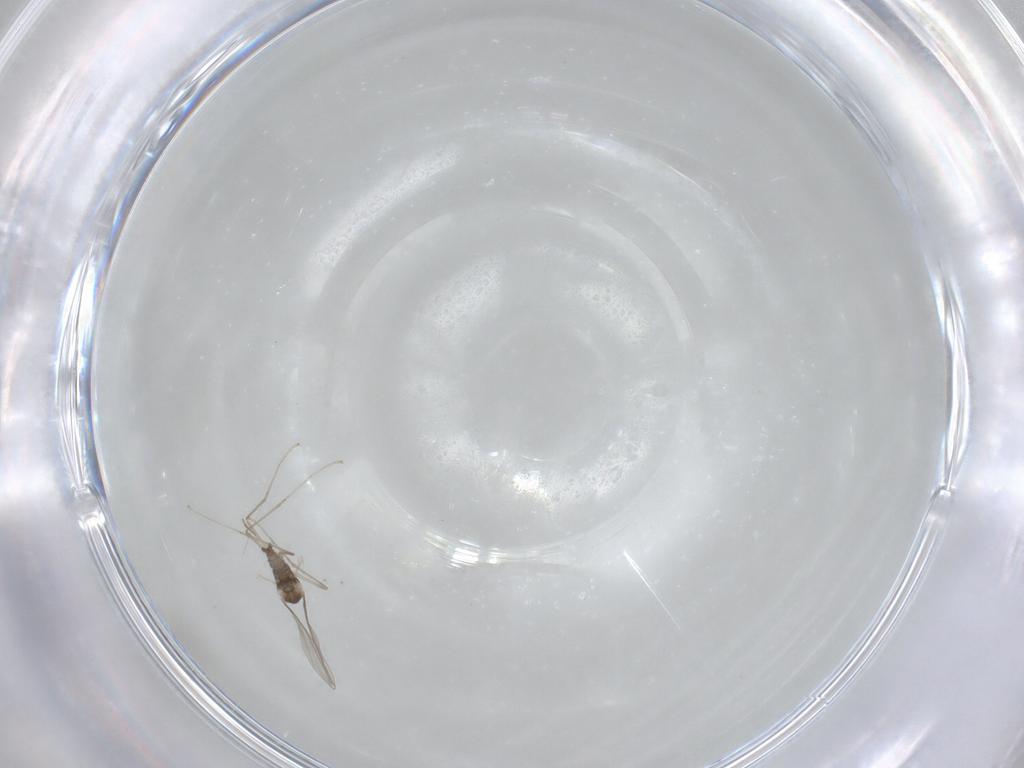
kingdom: Animalia
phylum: Arthropoda
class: Insecta
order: Diptera
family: Cecidomyiidae
